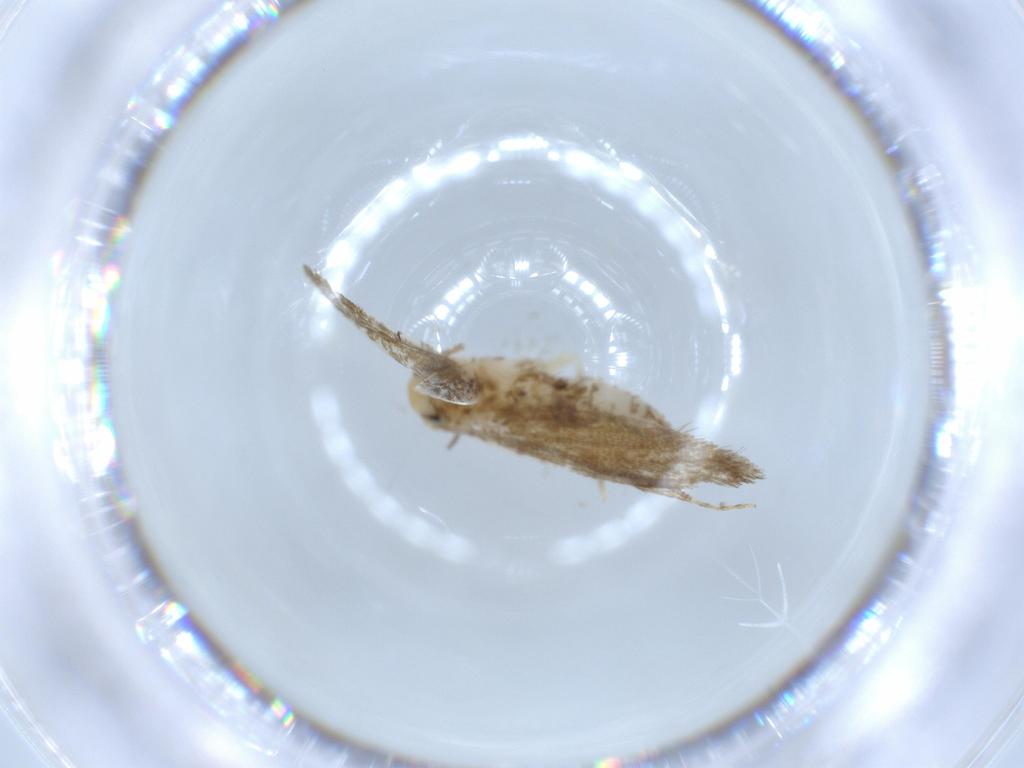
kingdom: Animalia
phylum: Arthropoda
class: Insecta
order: Lepidoptera
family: Tineidae
